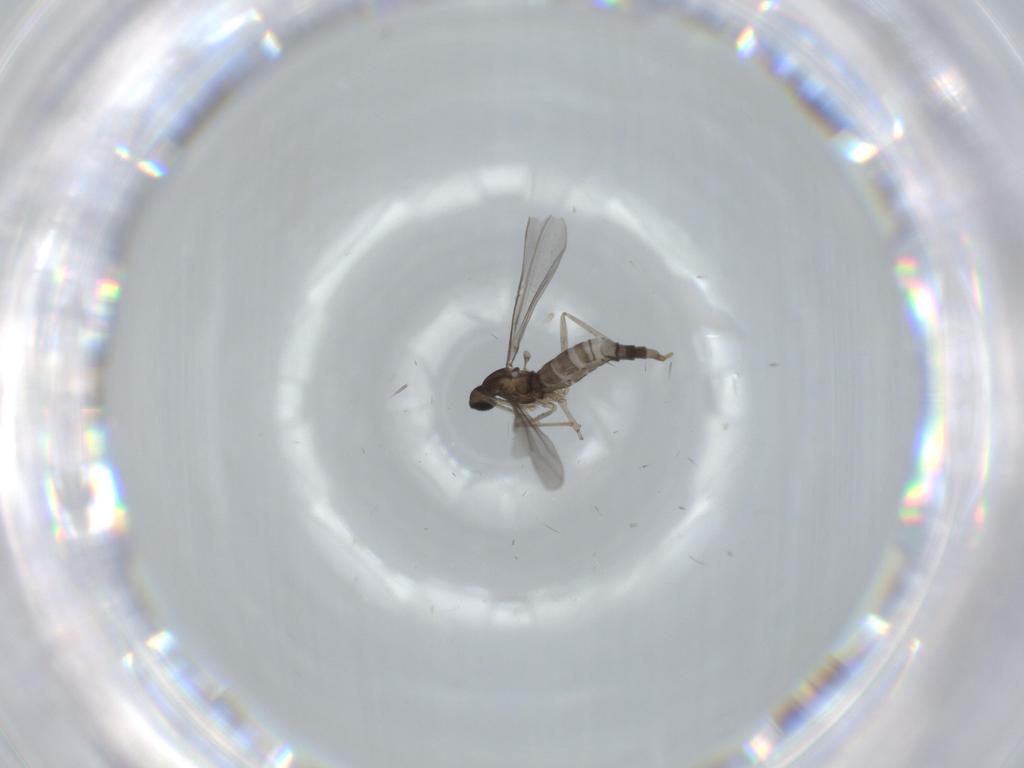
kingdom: Animalia
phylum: Arthropoda
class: Insecta
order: Diptera
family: Cecidomyiidae
